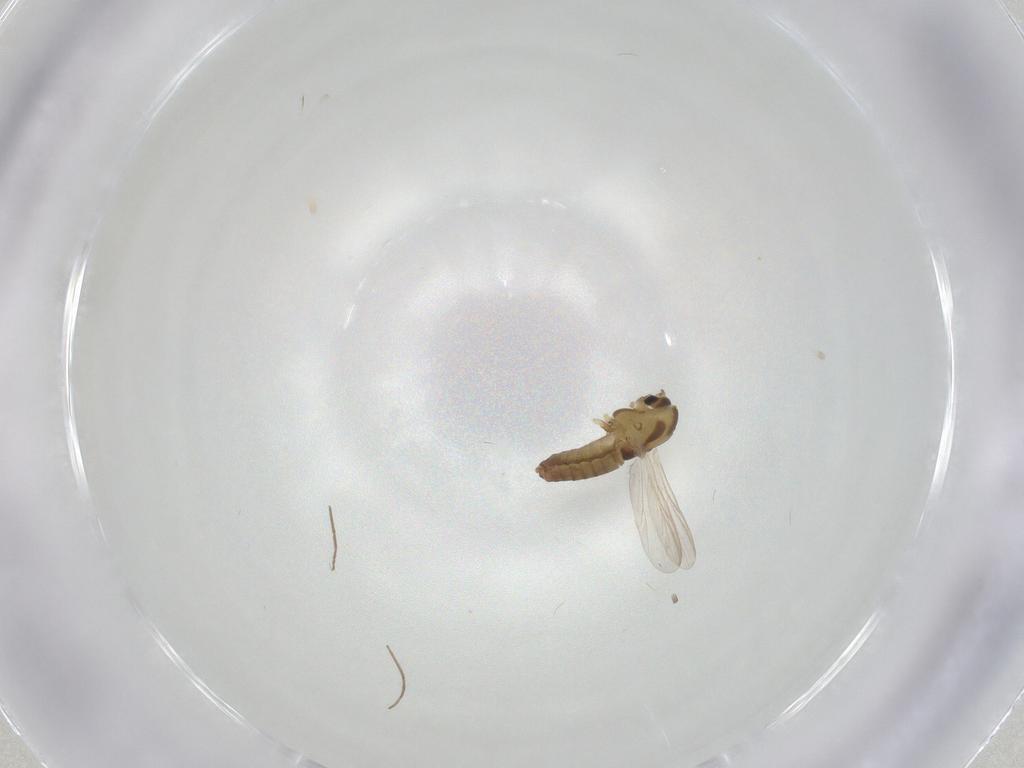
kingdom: Animalia
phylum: Arthropoda
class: Insecta
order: Diptera
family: Chironomidae
